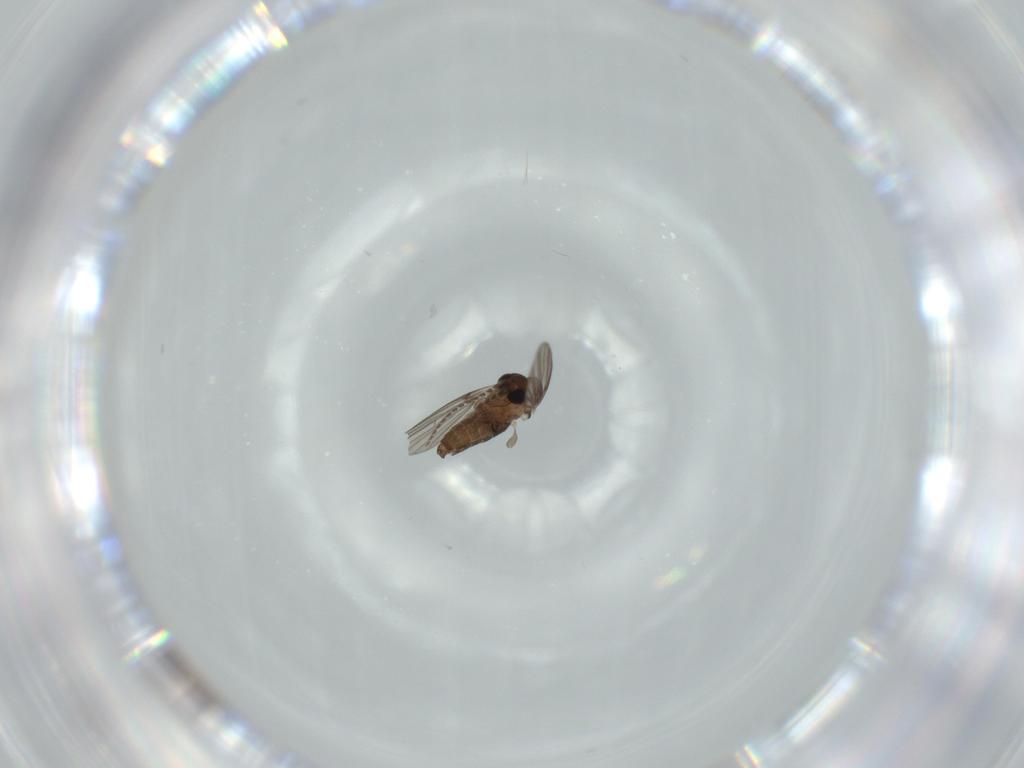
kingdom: Animalia
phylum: Arthropoda
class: Insecta
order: Diptera
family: Psychodidae
